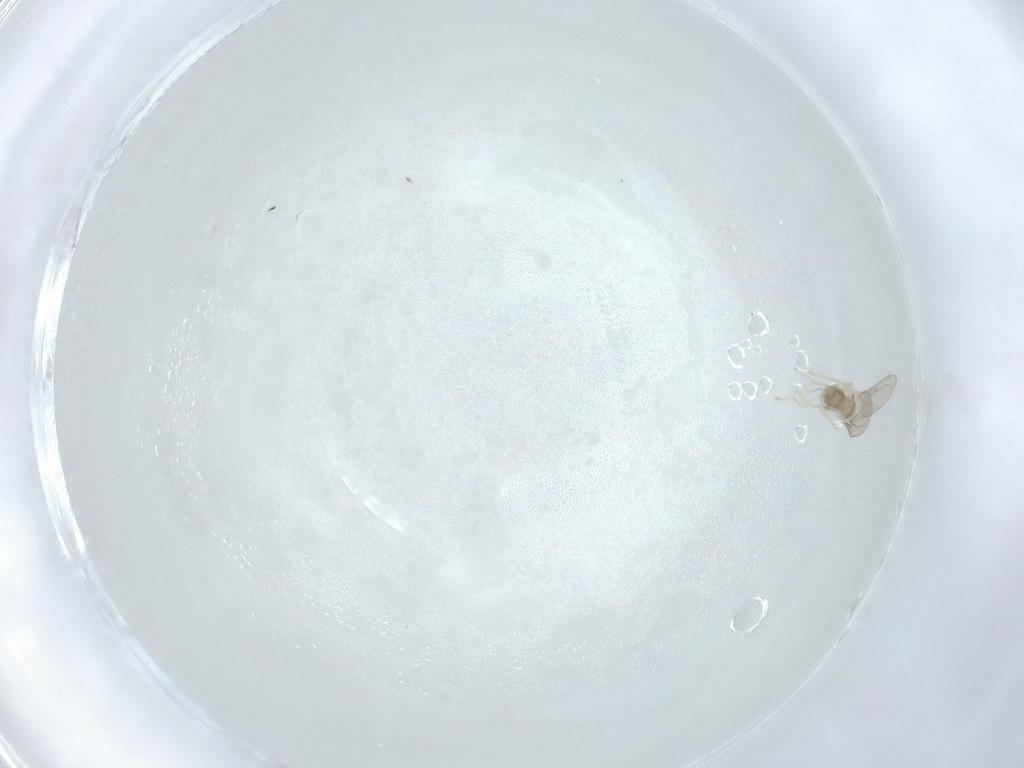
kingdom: Animalia
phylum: Arthropoda
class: Insecta
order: Diptera
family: Cecidomyiidae
